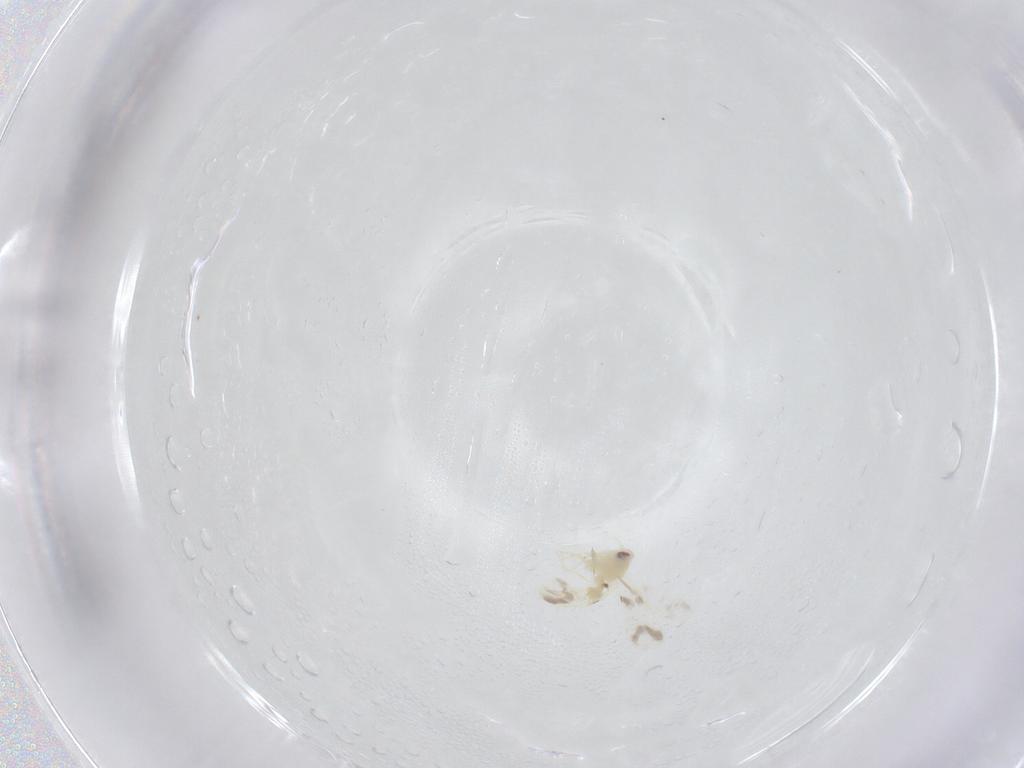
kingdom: Animalia
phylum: Arthropoda
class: Insecta
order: Hemiptera
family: Aleyrodidae
